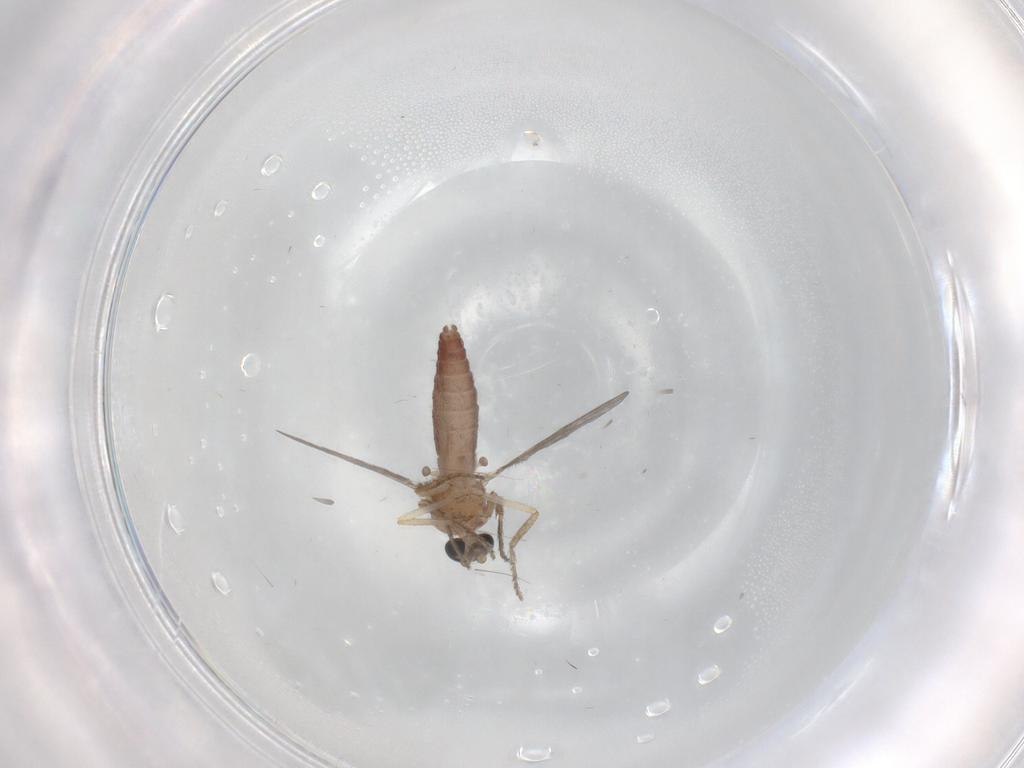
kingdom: Animalia
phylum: Arthropoda
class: Insecta
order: Diptera
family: Ceratopogonidae
